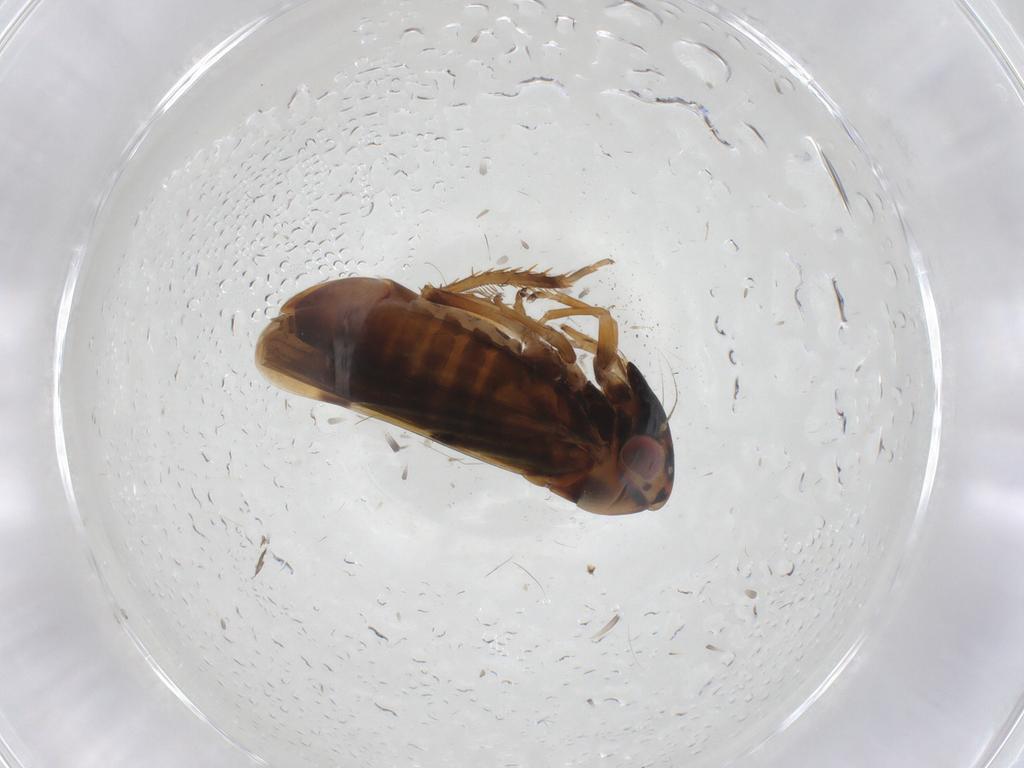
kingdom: Animalia
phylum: Arthropoda
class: Insecta
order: Hemiptera
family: Cicadellidae
